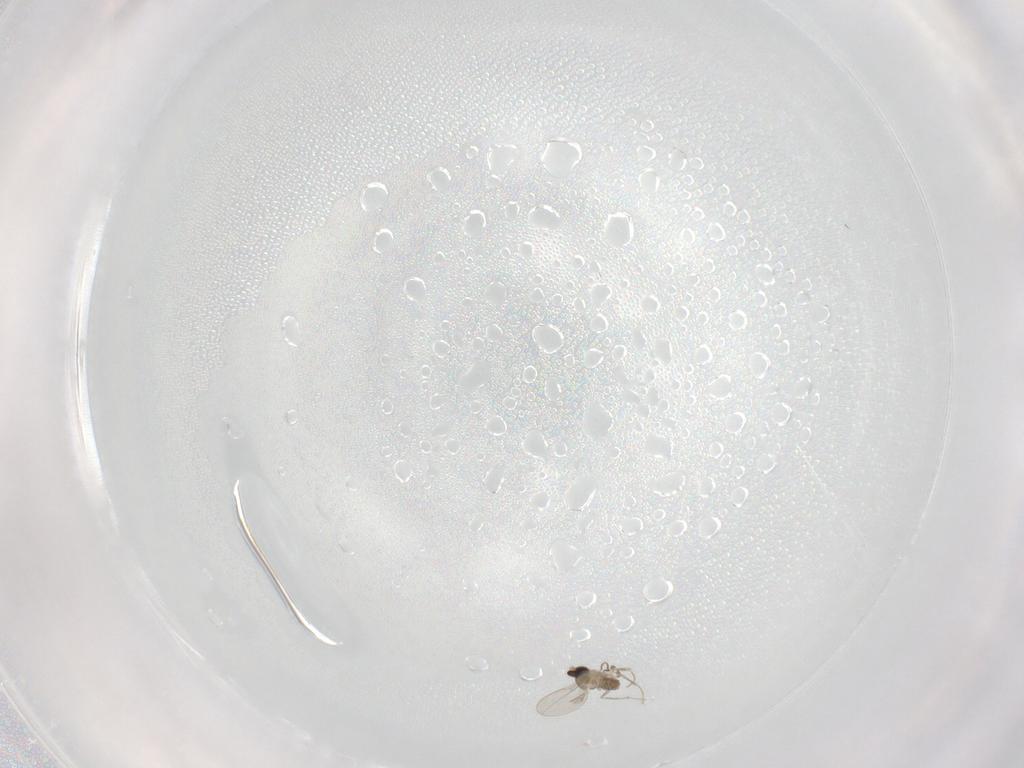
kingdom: Animalia
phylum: Arthropoda
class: Insecta
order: Diptera
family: Cecidomyiidae
